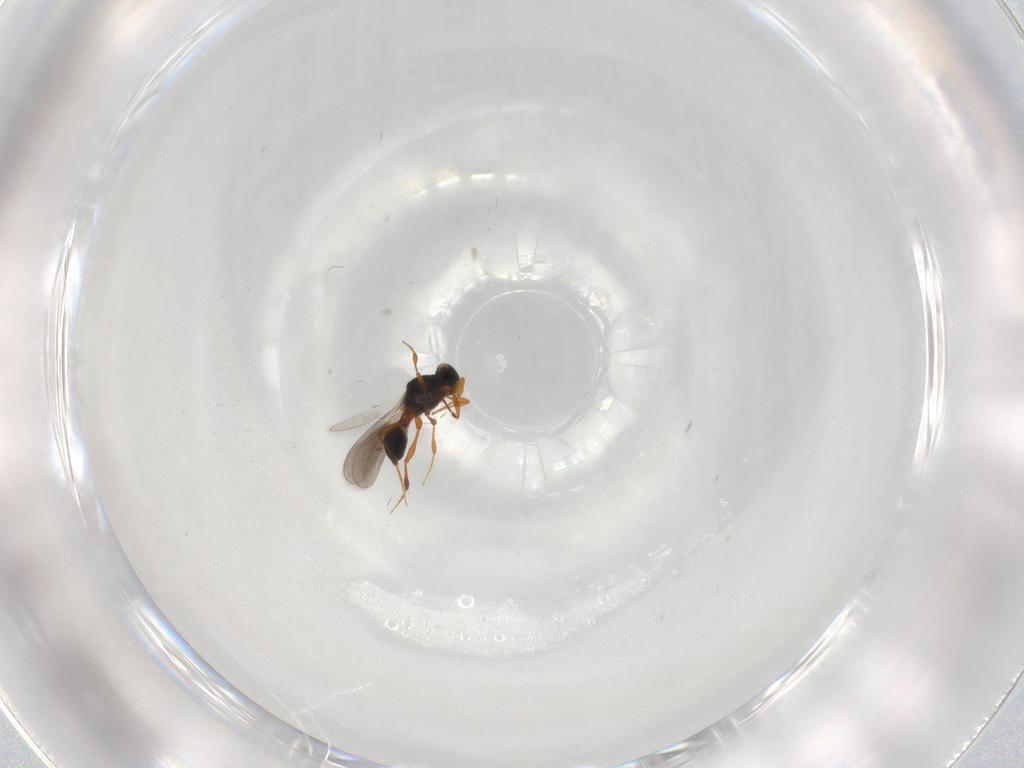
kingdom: Animalia
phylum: Arthropoda
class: Insecta
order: Hymenoptera
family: Platygastridae
